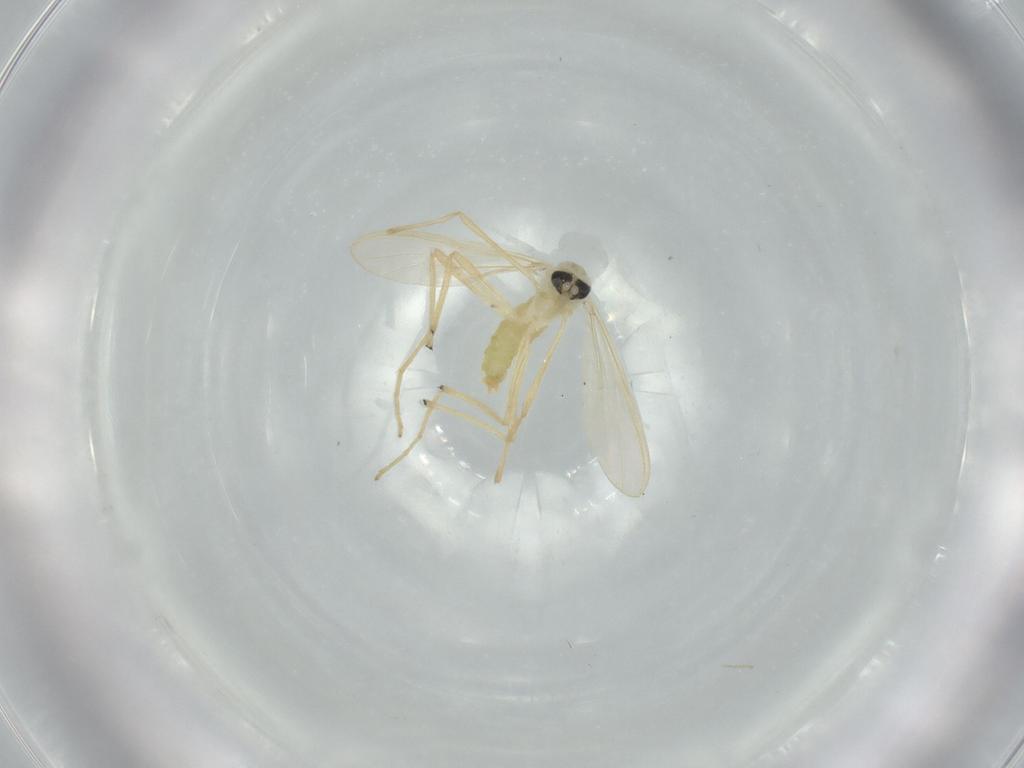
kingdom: Animalia
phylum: Arthropoda
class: Insecta
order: Diptera
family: Chironomidae
